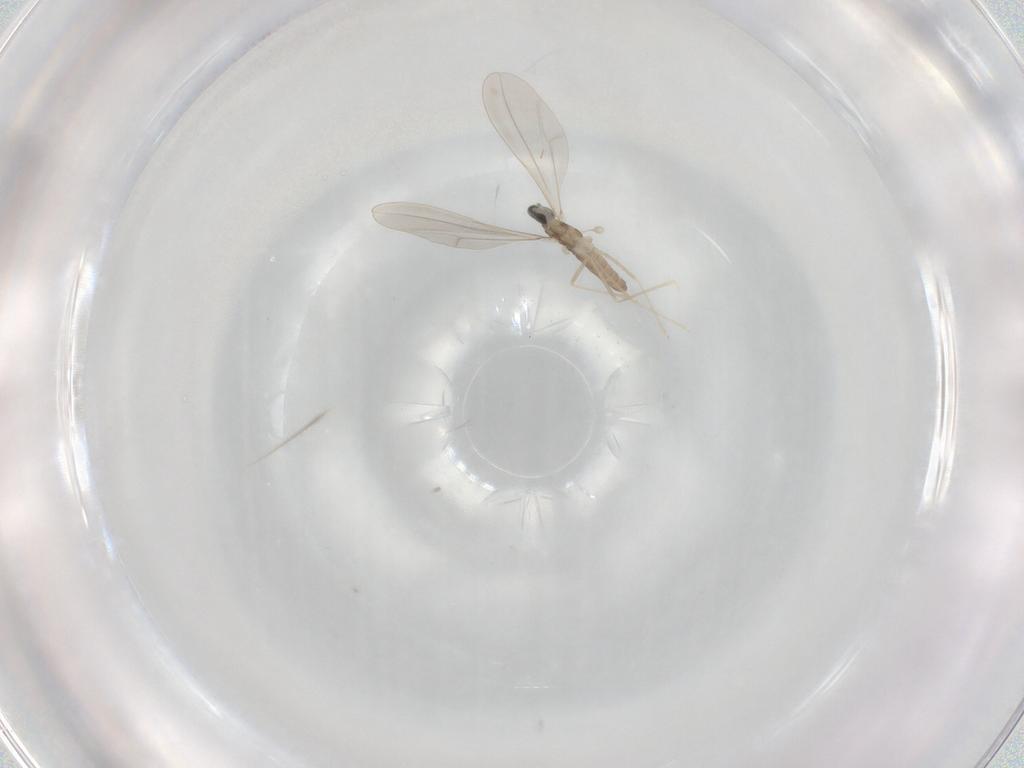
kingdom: Animalia
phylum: Arthropoda
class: Insecta
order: Diptera
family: Cecidomyiidae
